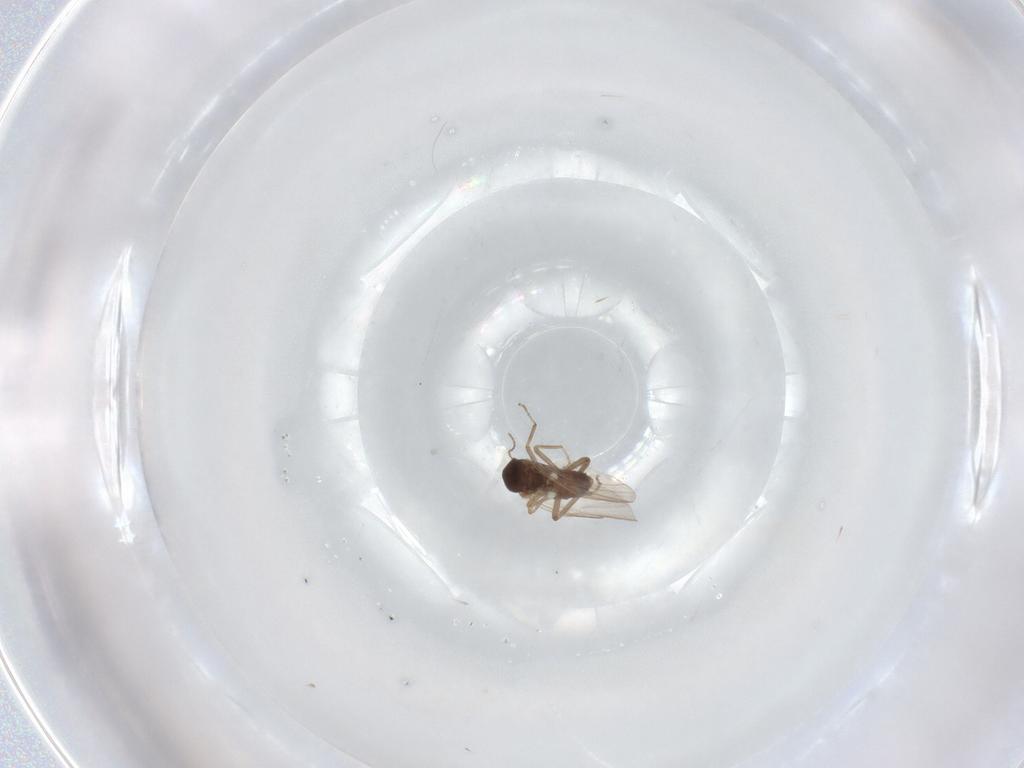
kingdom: Animalia
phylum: Arthropoda
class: Insecta
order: Diptera
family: Ceratopogonidae
